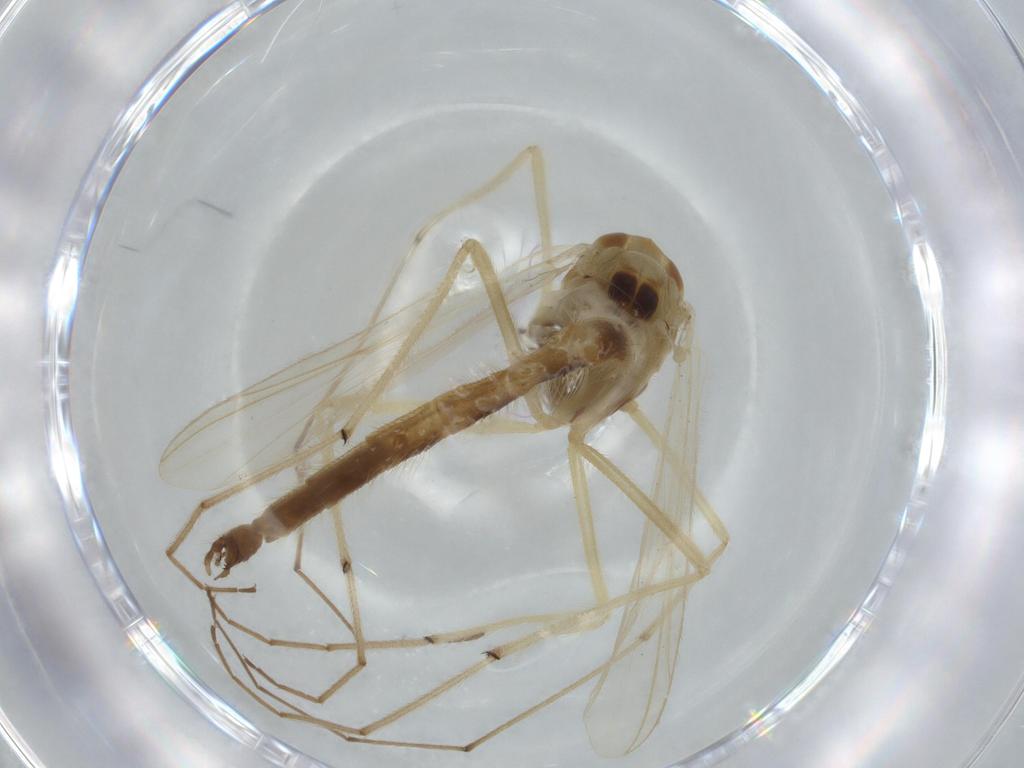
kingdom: Animalia
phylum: Arthropoda
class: Insecta
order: Diptera
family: Chironomidae
